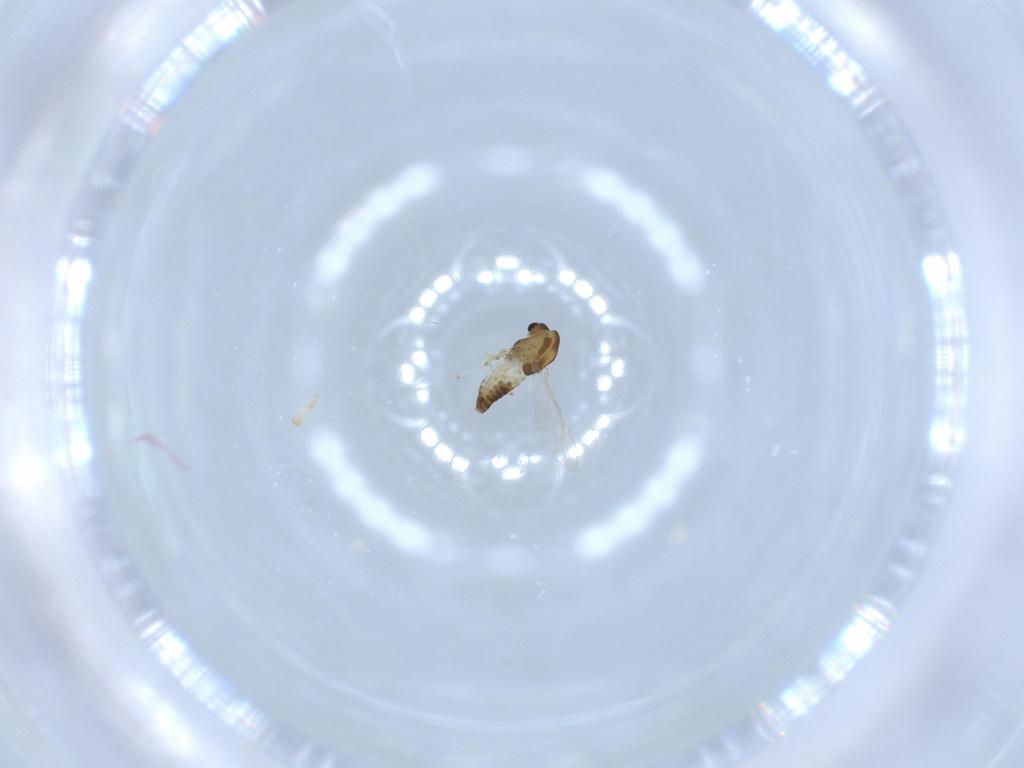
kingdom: Animalia
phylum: Arthropoda
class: Insecta
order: Diptera
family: Chironomidae
